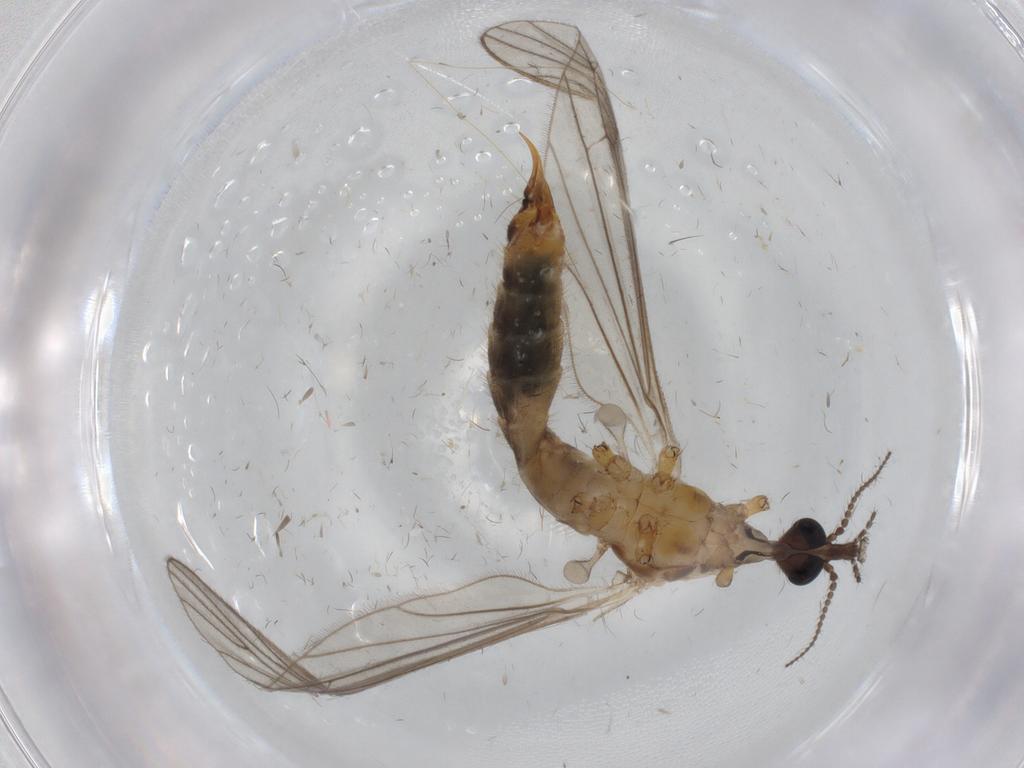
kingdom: Animalia
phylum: Arthropoda
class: Insecta
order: Diptera
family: Limoniidae
